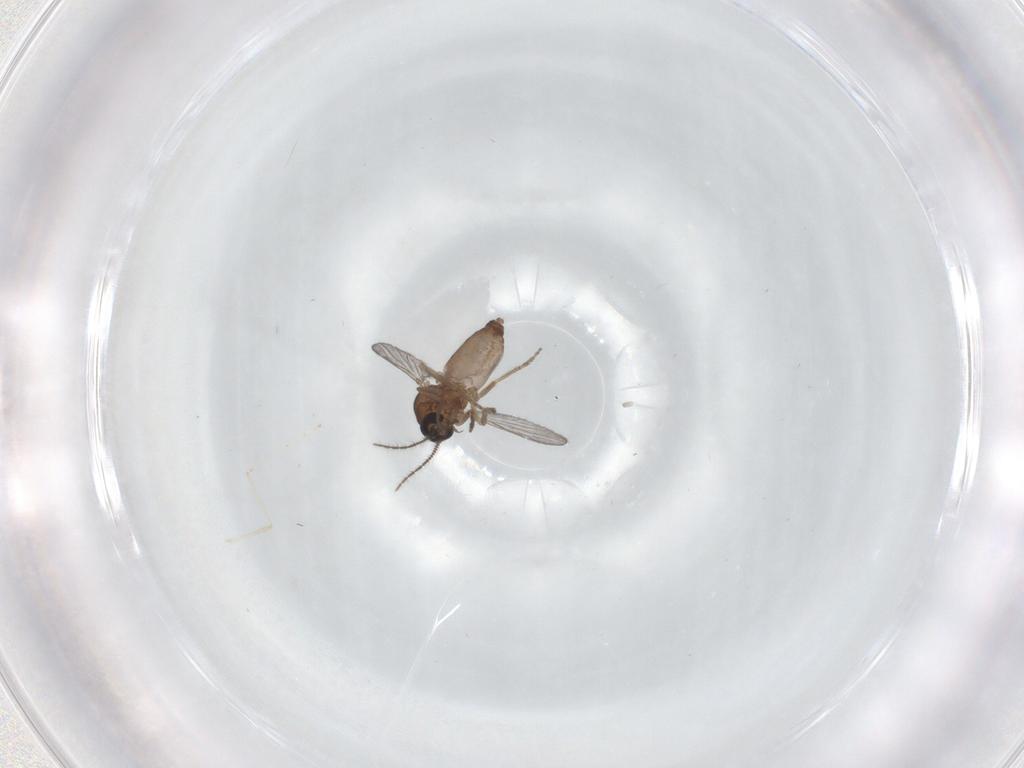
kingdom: Animalia
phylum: Arthropoda
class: Insecta
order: Diptera
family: Ceratopogonidae
